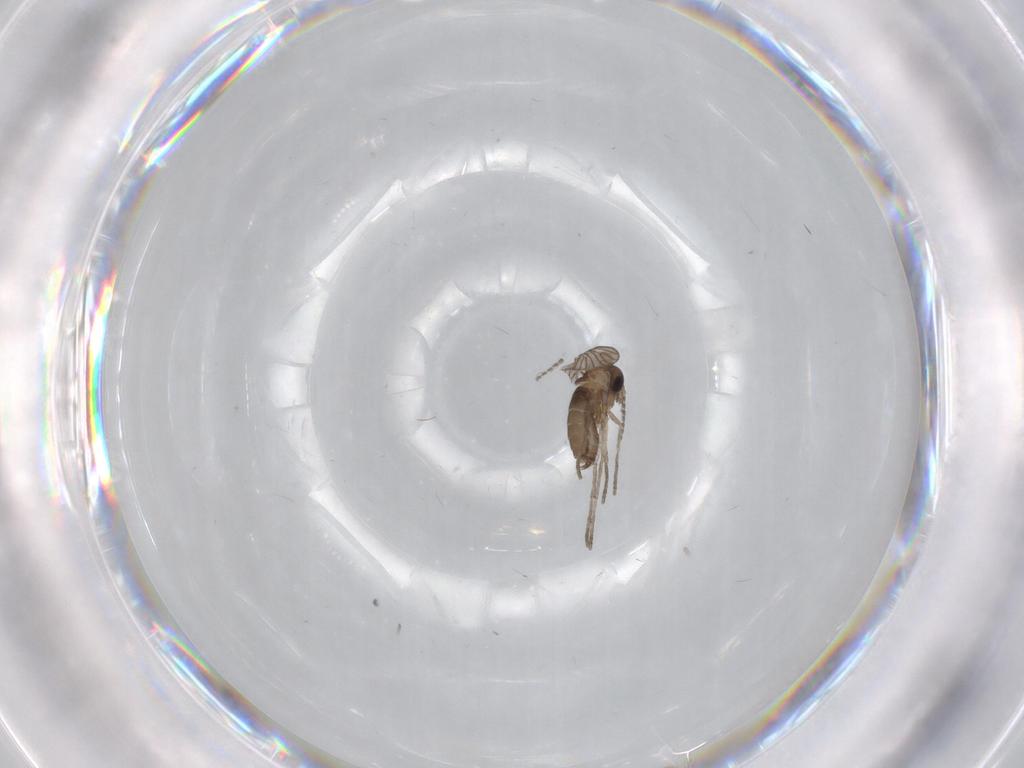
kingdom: Animalia
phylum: Arthropoda
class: Insecta
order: Diptera
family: Psychodidae
